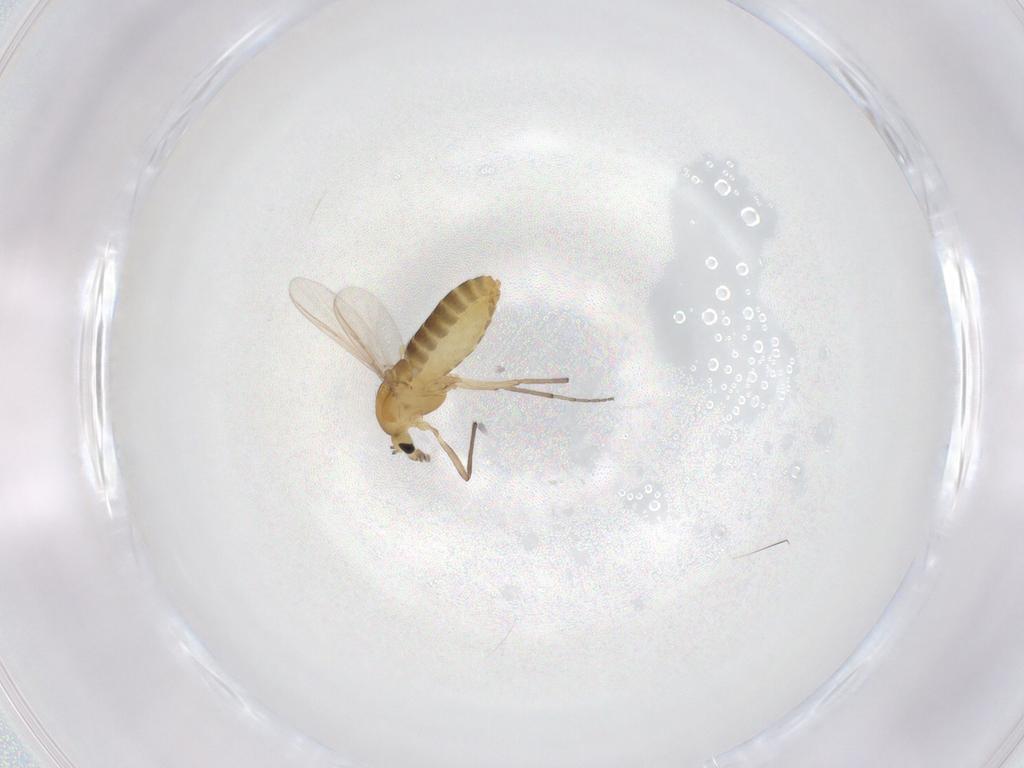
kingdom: Animalia
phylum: Arthropoda
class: Insecta
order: Diptera
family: Chironomidae
